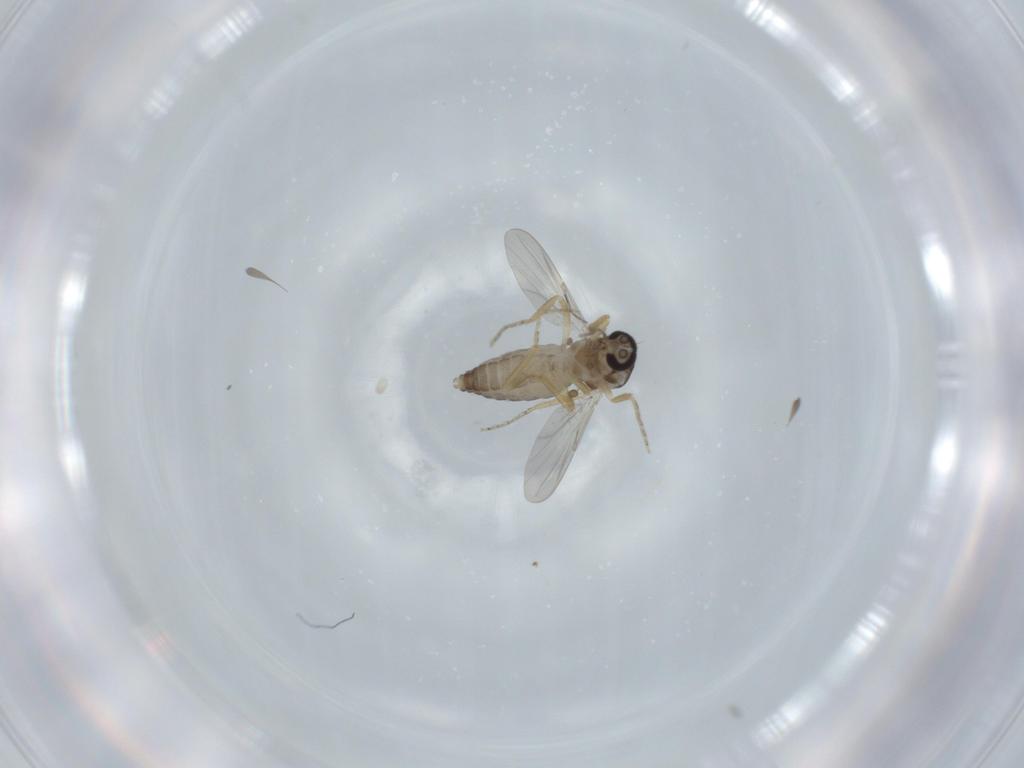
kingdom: Animalia
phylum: Arthropoda
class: Insecta
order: Diptera
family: Ceratopogonidae
